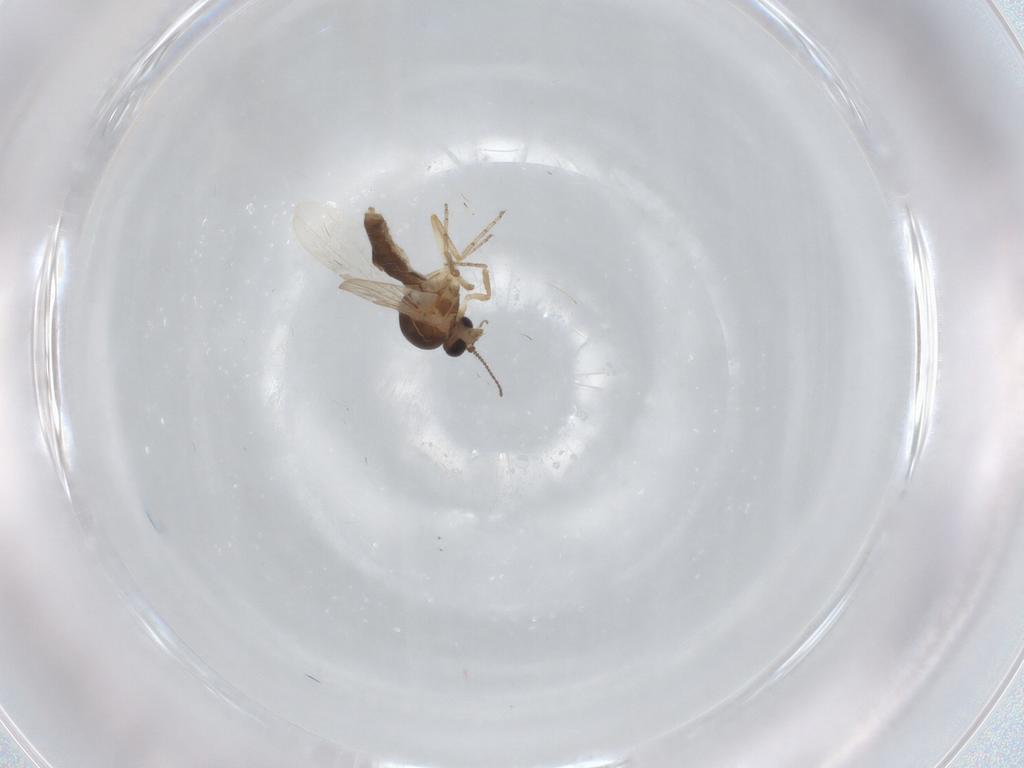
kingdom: Animalia
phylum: Arthropoda
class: Insecta
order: Diptera
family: Ceratopogonidae
